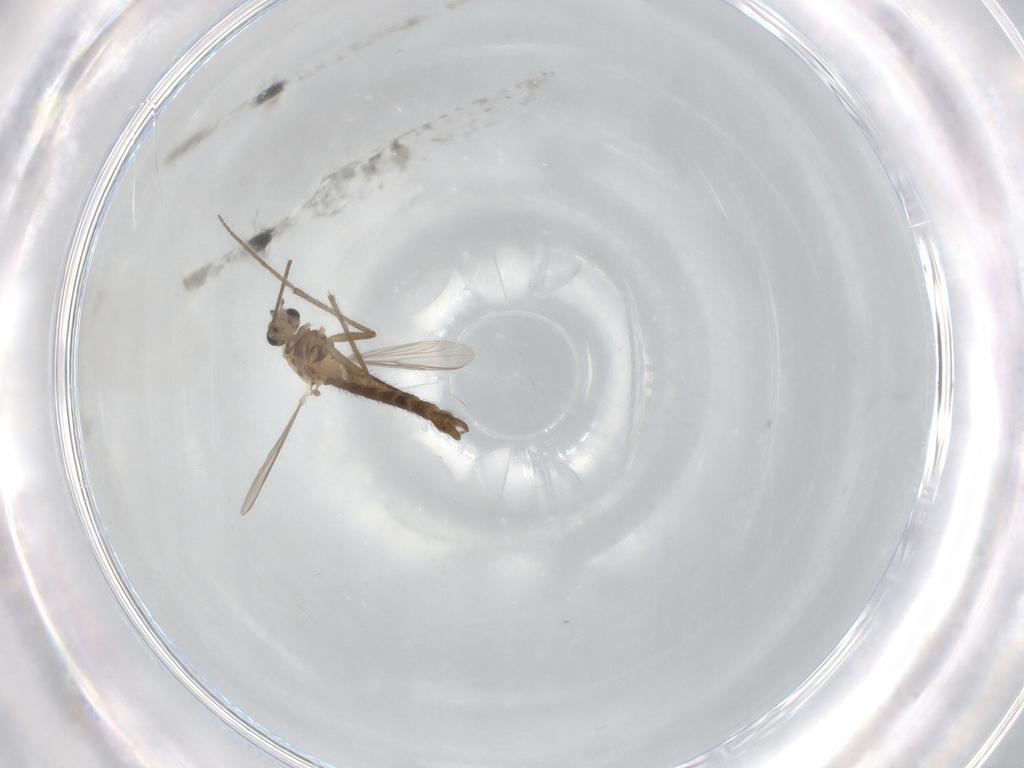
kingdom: Animalia
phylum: Arthropoda
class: Insecta
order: Diptera
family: Chironomidae
